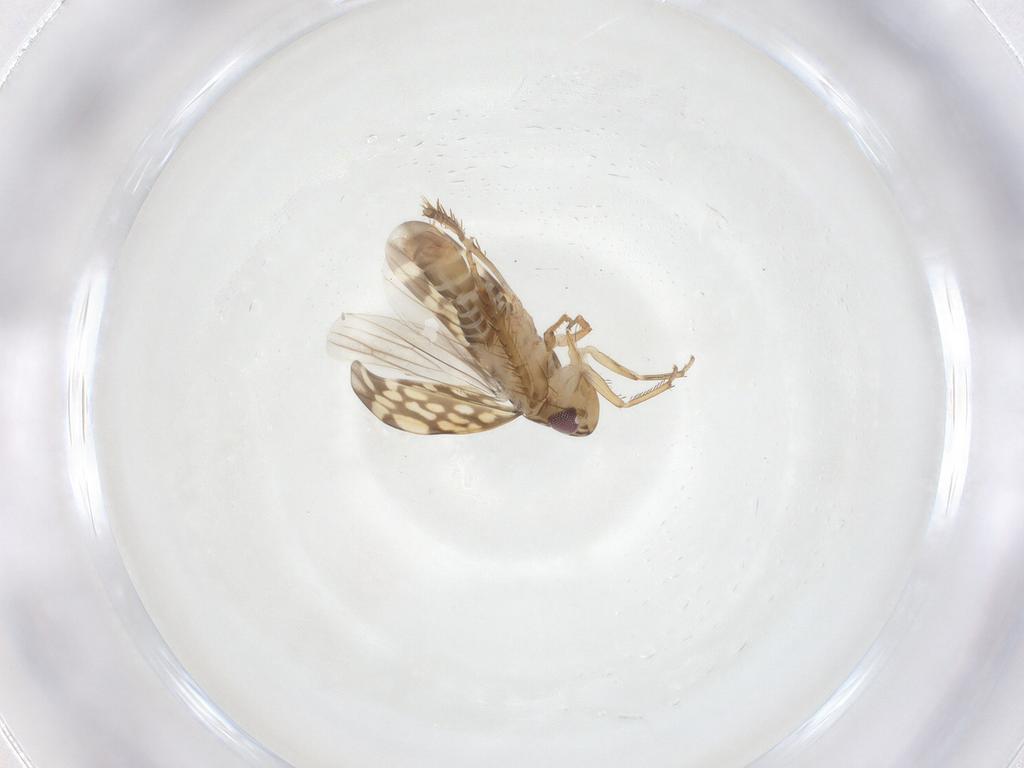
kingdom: Animalia
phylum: Arthropoda
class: Insecta
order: Hemiptera
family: Cicadellidae
